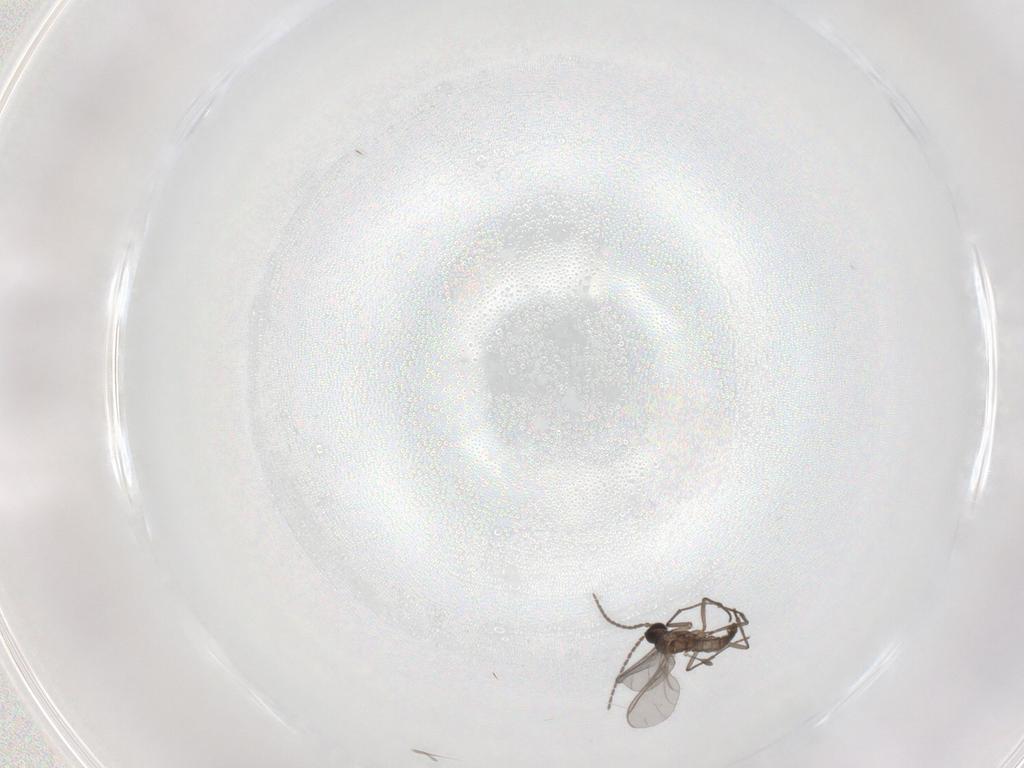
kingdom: Animalia
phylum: Arthropoda
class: Insecta
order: Diptera
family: Sciaridae
